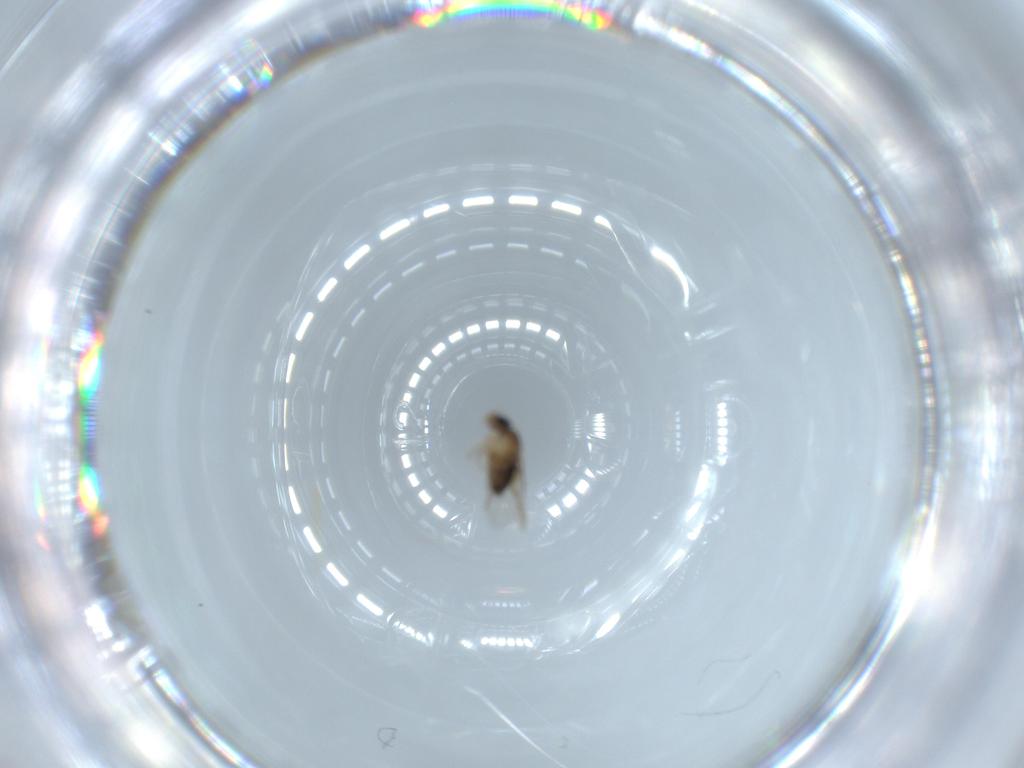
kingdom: Animalia
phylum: Arthropoda
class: Insecta
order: Diptera
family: Phoridae
